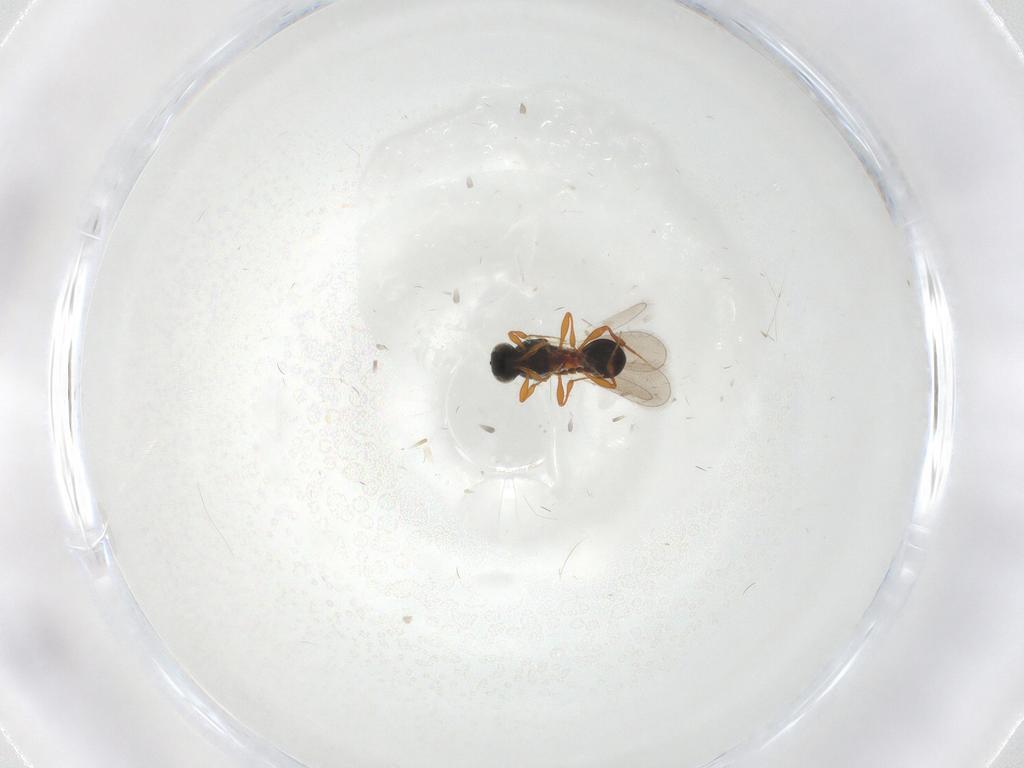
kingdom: Animalia
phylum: Arthropoda
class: Insecta
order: Hymenoptera
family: Platygastridae
